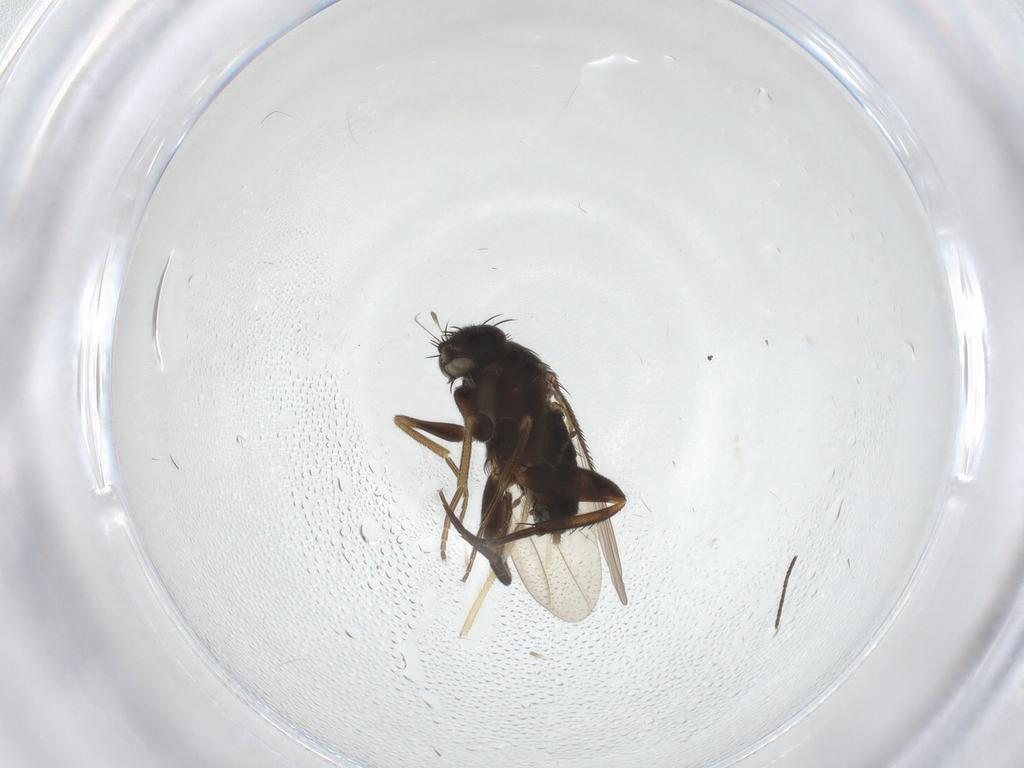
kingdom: Animalia
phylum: Arthropoda
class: Insecta
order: Diptera
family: Phoridae
